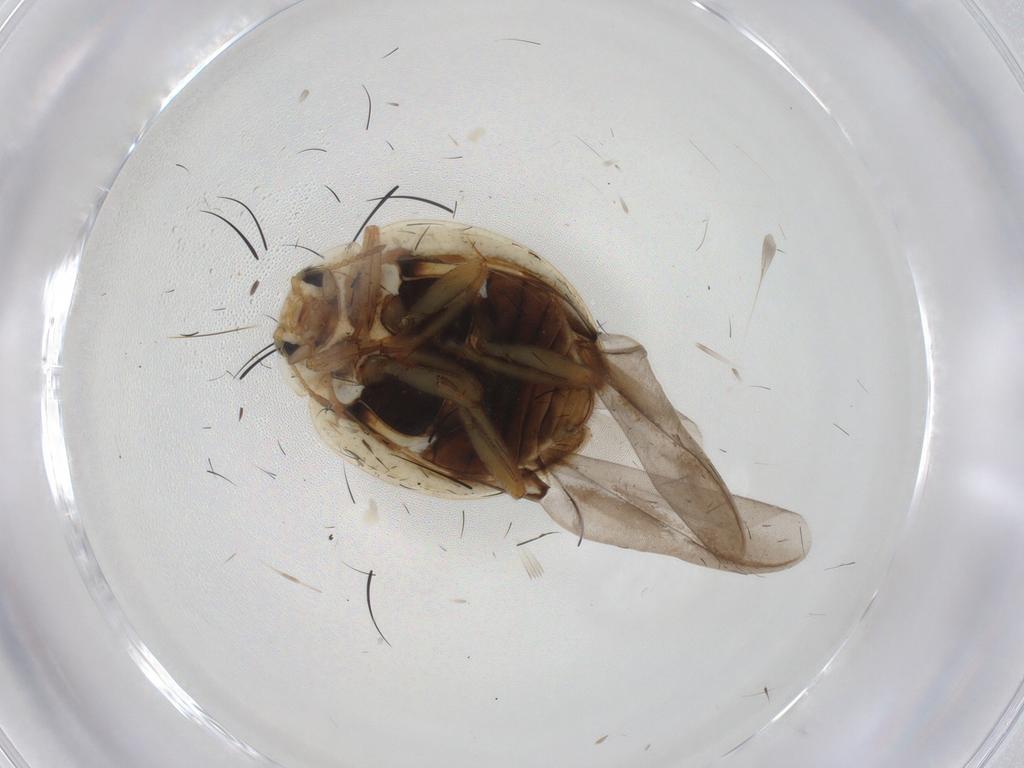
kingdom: Animalia
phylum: Arthropoda
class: Insecta
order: Coleoptera
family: Coccinellidae
